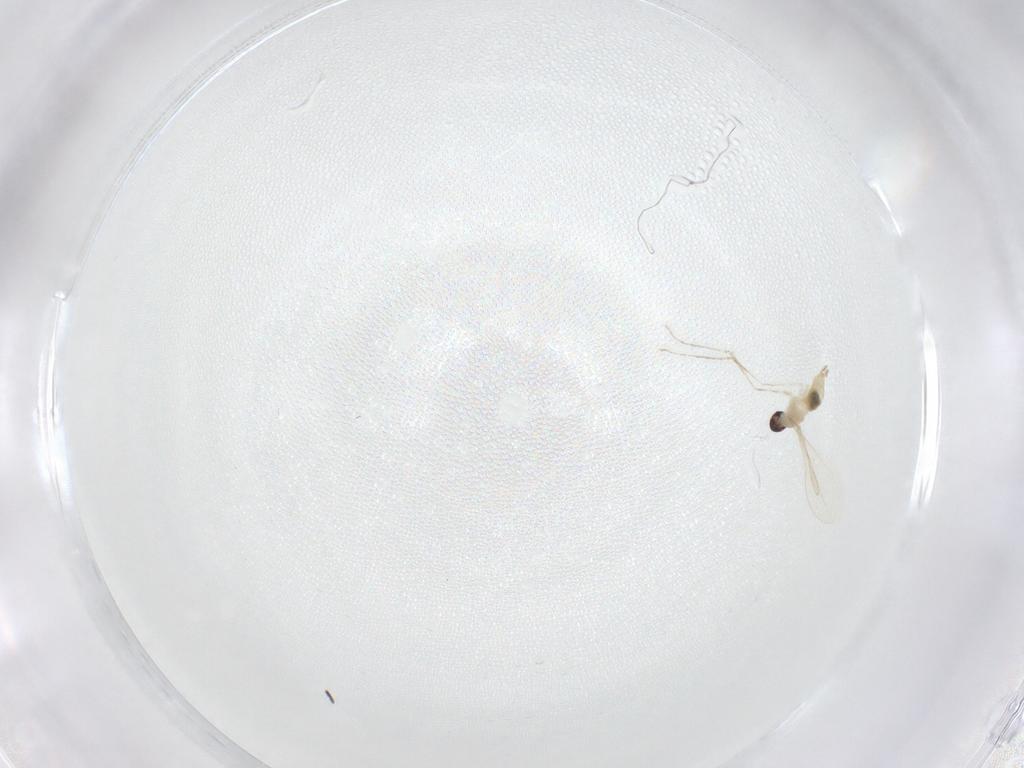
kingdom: Animalia
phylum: Arthropoda
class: Insecta
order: Diptera
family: Cecidomyiidae
